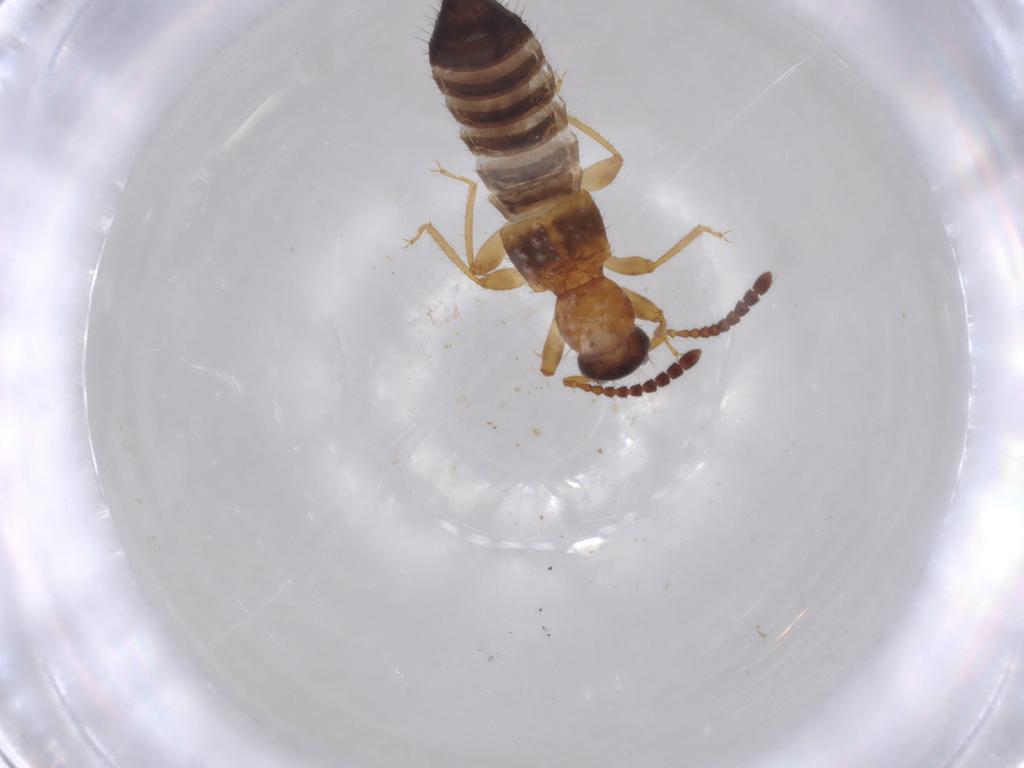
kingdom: Animalia
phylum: Arthropoda
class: Insecta
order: Coleoptera
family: Staphylinidae
